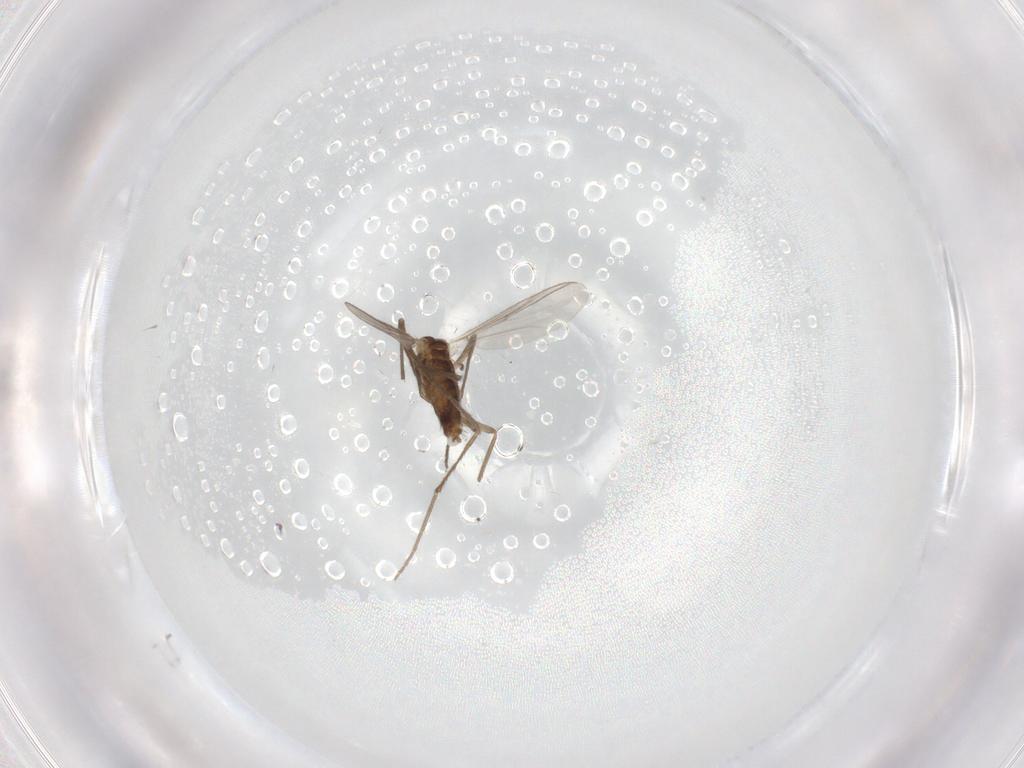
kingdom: Animalia
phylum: Arthropoda
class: Insecta
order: Diptera
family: Chironomidae
